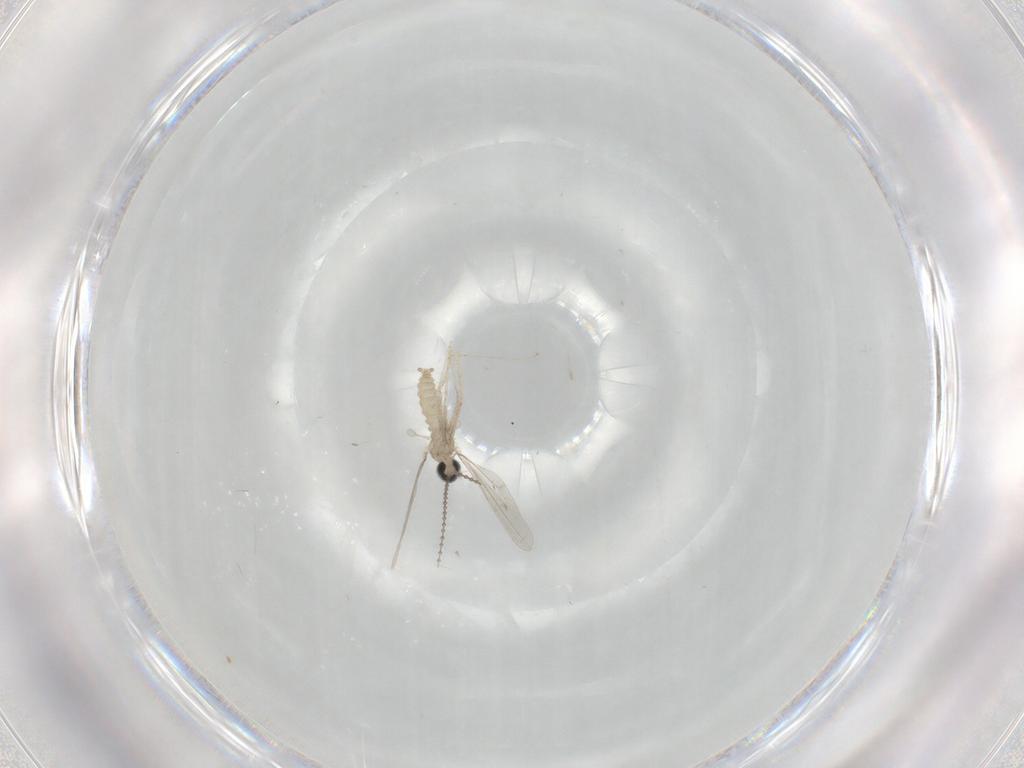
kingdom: Animalia
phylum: Arthropoda
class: Insecta
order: Diptera
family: Cecidomyiidae
